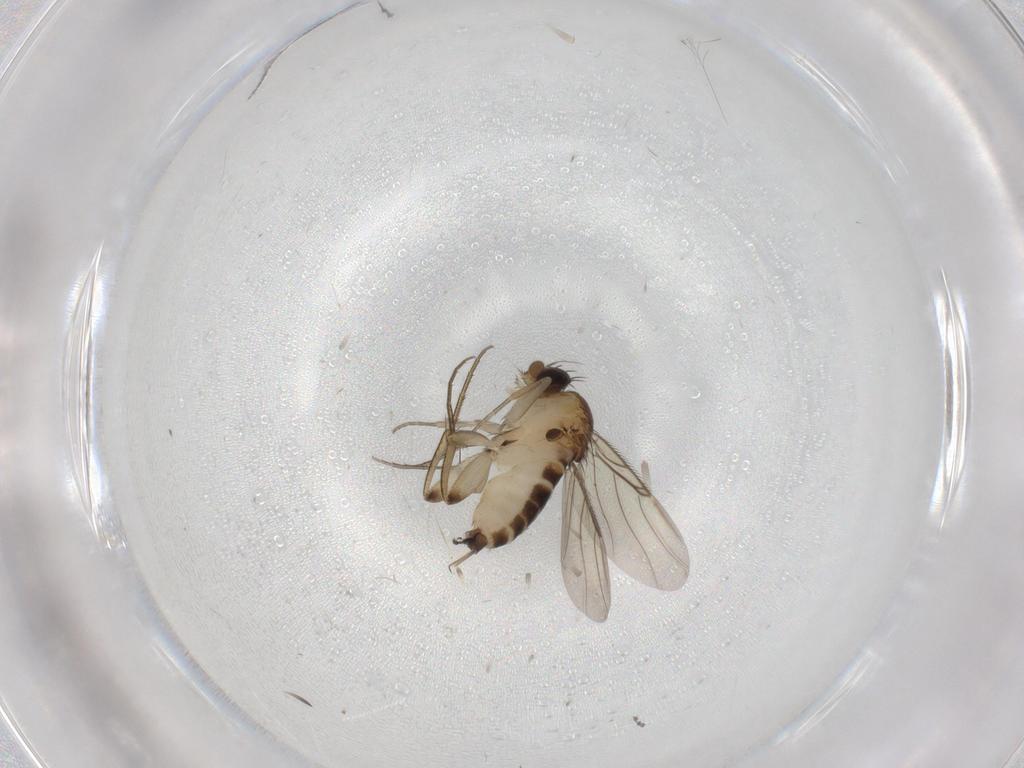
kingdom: Animalia
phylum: Arthropoda
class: Insecta
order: Diptera
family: Phoridae
